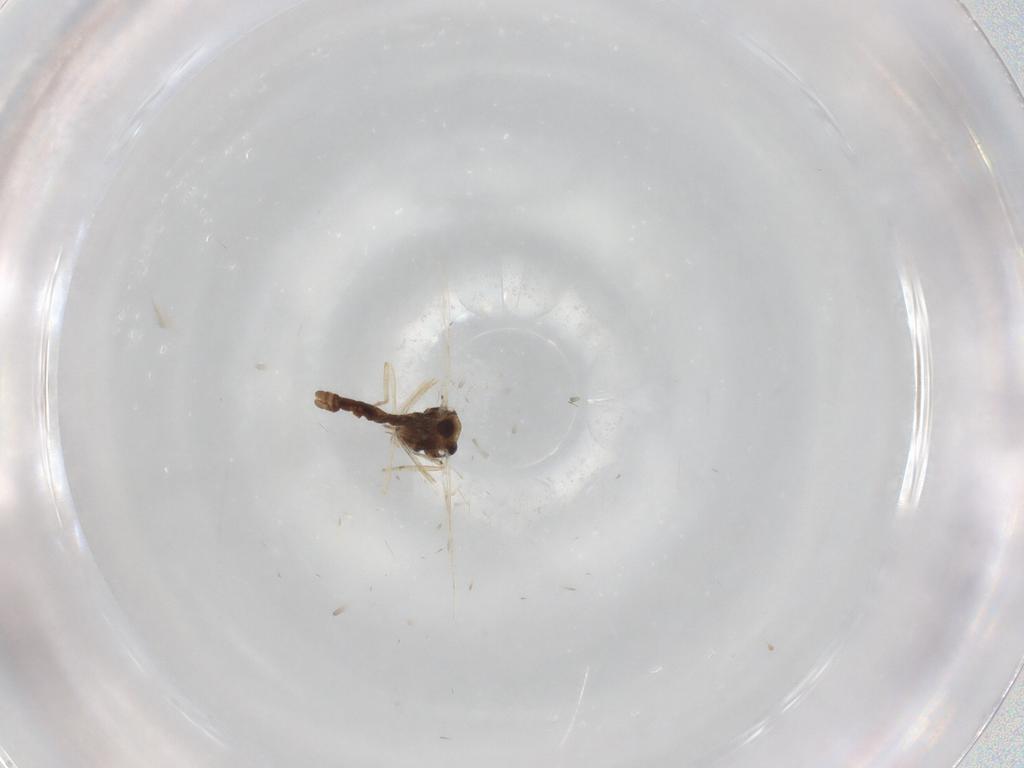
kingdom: Animalia
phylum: Arthropoda
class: Insecta
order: Diptera
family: Ceratopogonidae
